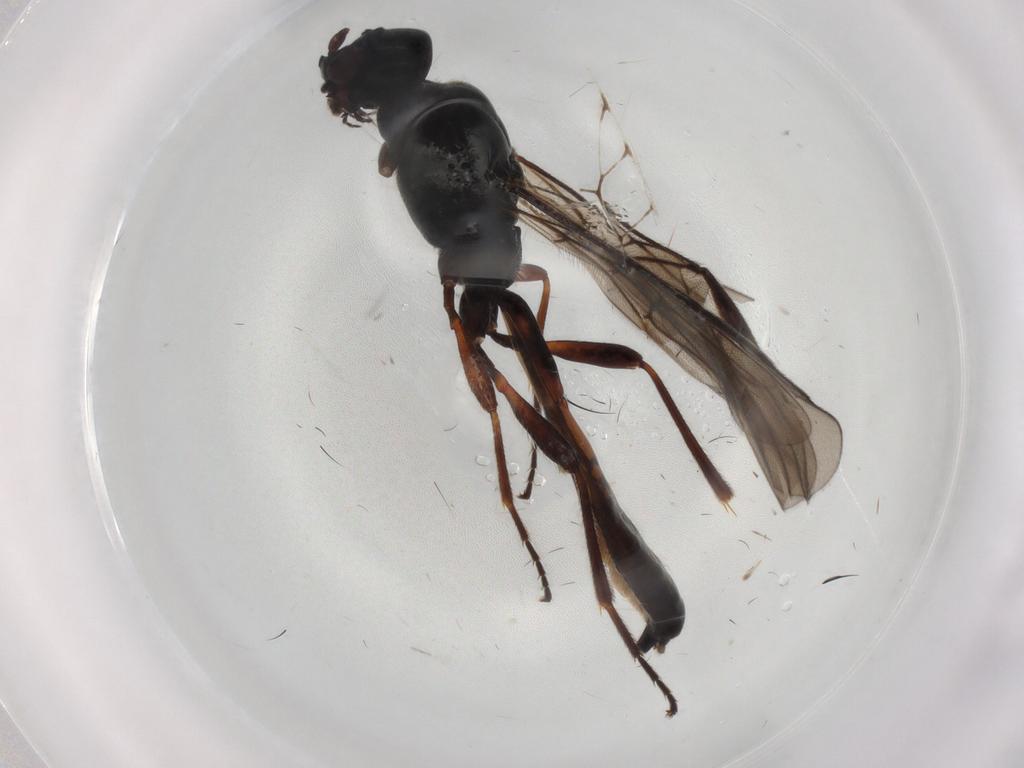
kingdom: Animalia
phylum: Arthropoda
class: Insecta
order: Hymenoptera
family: Braconidae
